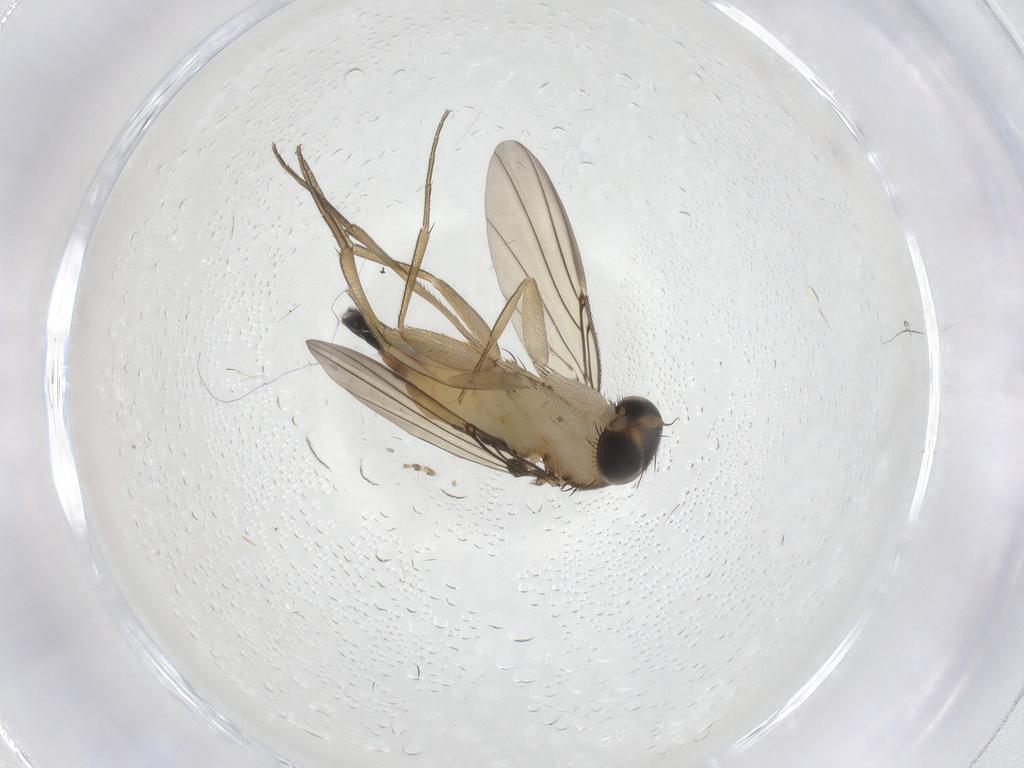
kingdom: Animalia
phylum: Arthropoda
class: Insecta
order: Diptera
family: Phoridae
